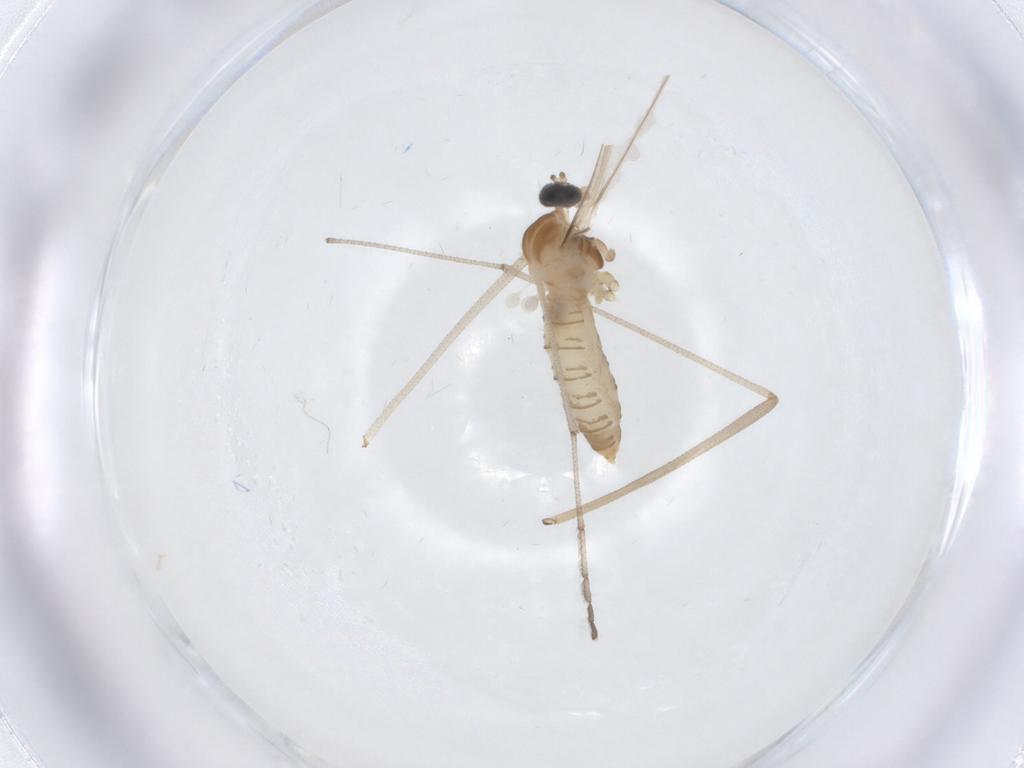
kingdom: Animalia
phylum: Arthropoda
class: Insecta
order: Diptera
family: Cecidomyiidae
